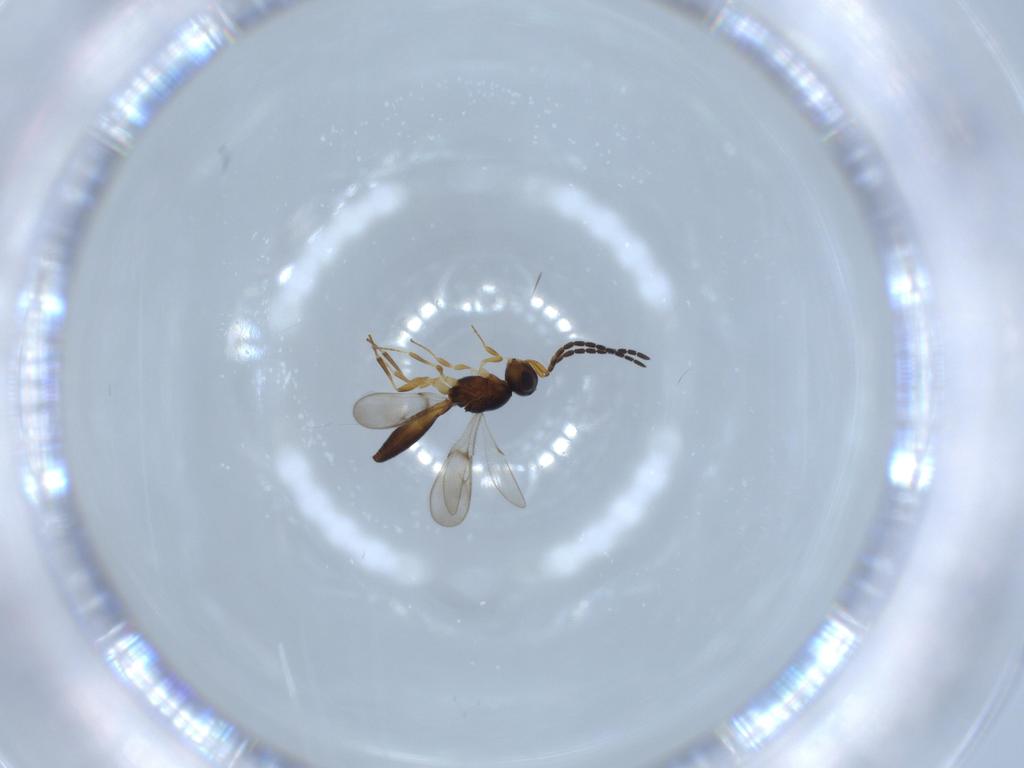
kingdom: Animalia
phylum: Arthropoda
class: Insecta
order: Hymenoptera
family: Scelionidae
